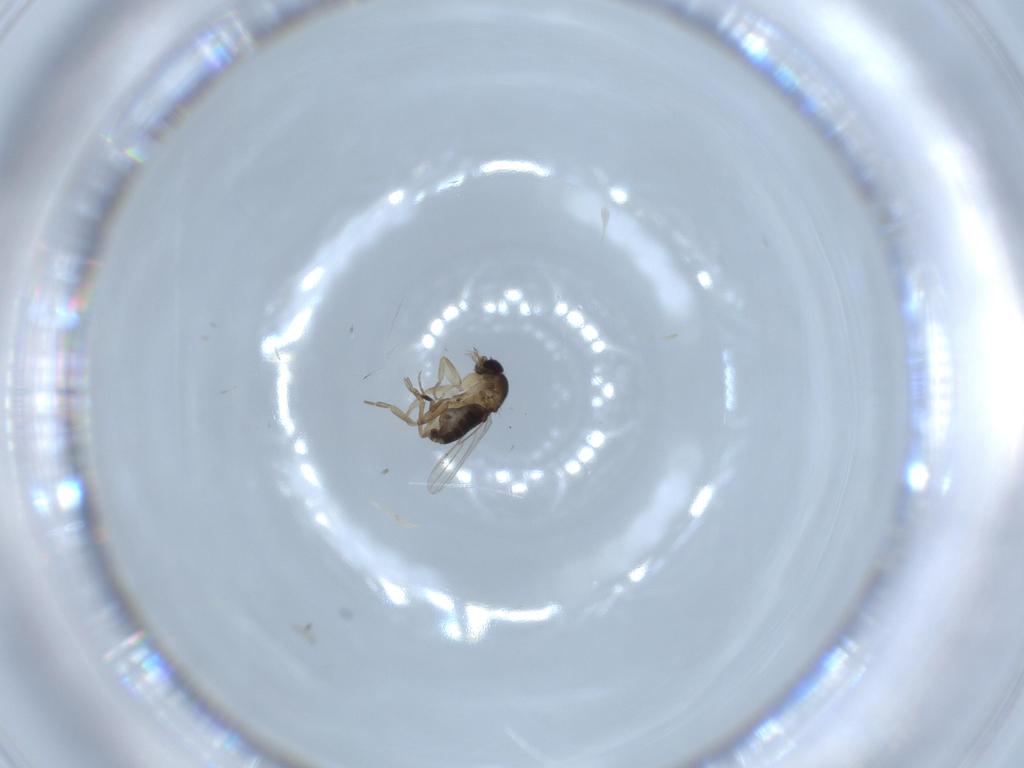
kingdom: Animalia
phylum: Arthropoda
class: Insecta
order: Diptera
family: Phoridae
